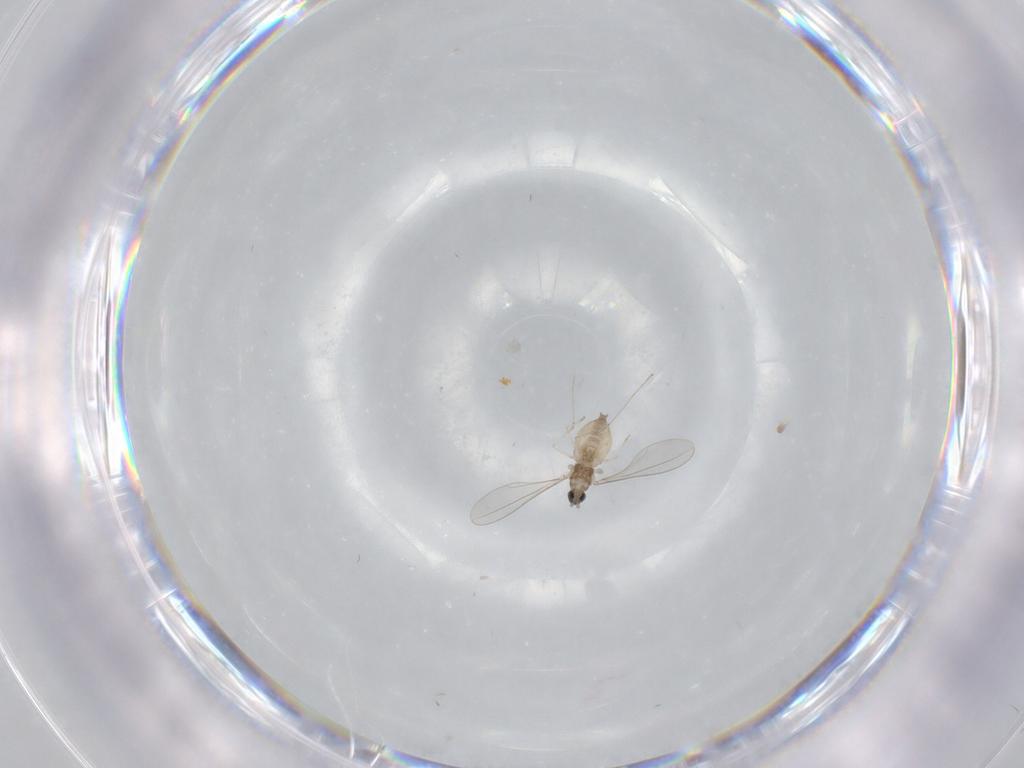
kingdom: Animalia
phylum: Arthropoda
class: Insecta
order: Diptera
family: Cecidomyiidae
